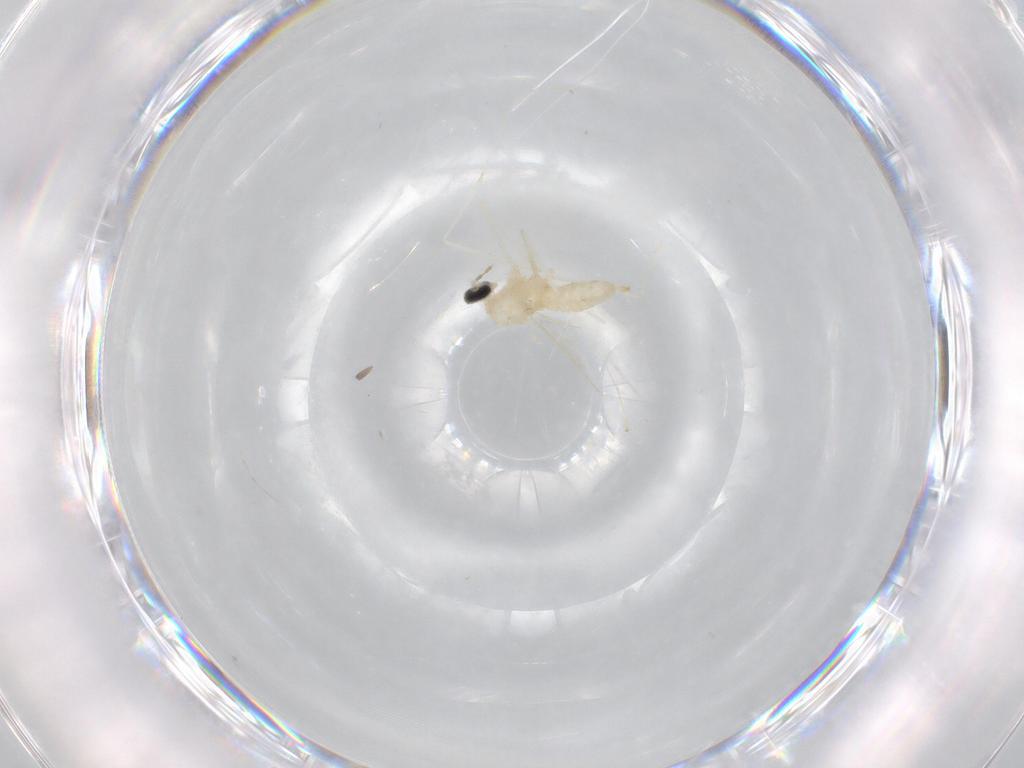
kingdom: Animalia
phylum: Arthropoda
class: Insecta
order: Diptera
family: Cecidomyiidae
